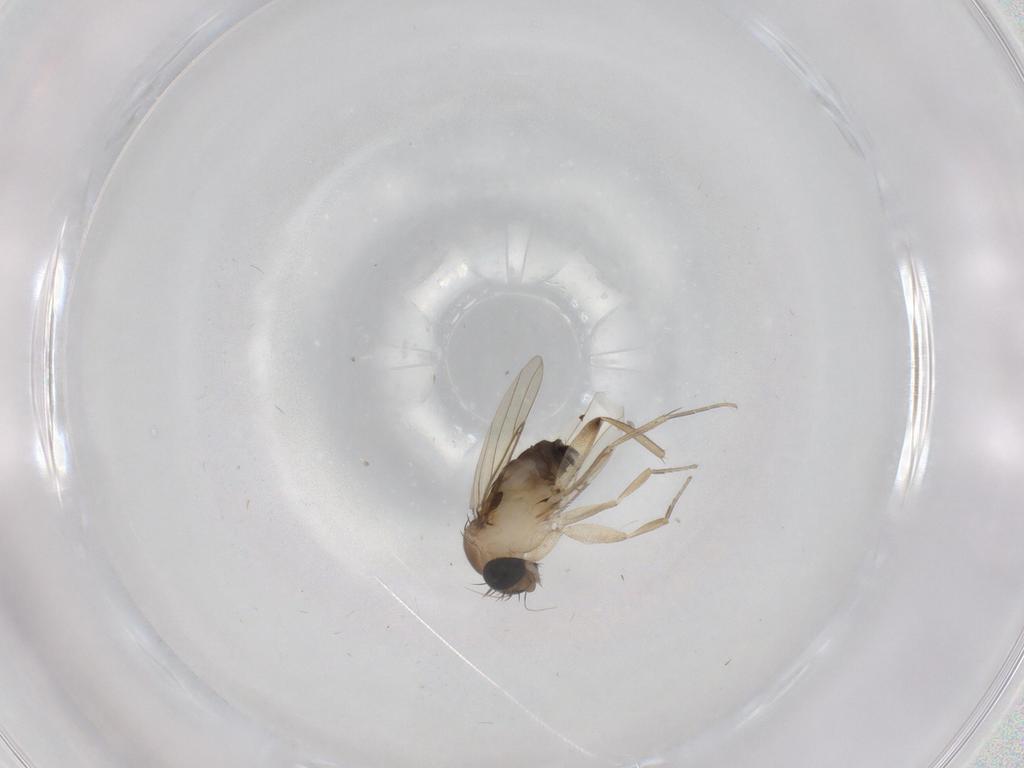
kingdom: Animalia
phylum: Arthropoda
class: Insecta
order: Diptera
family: Phoridae
